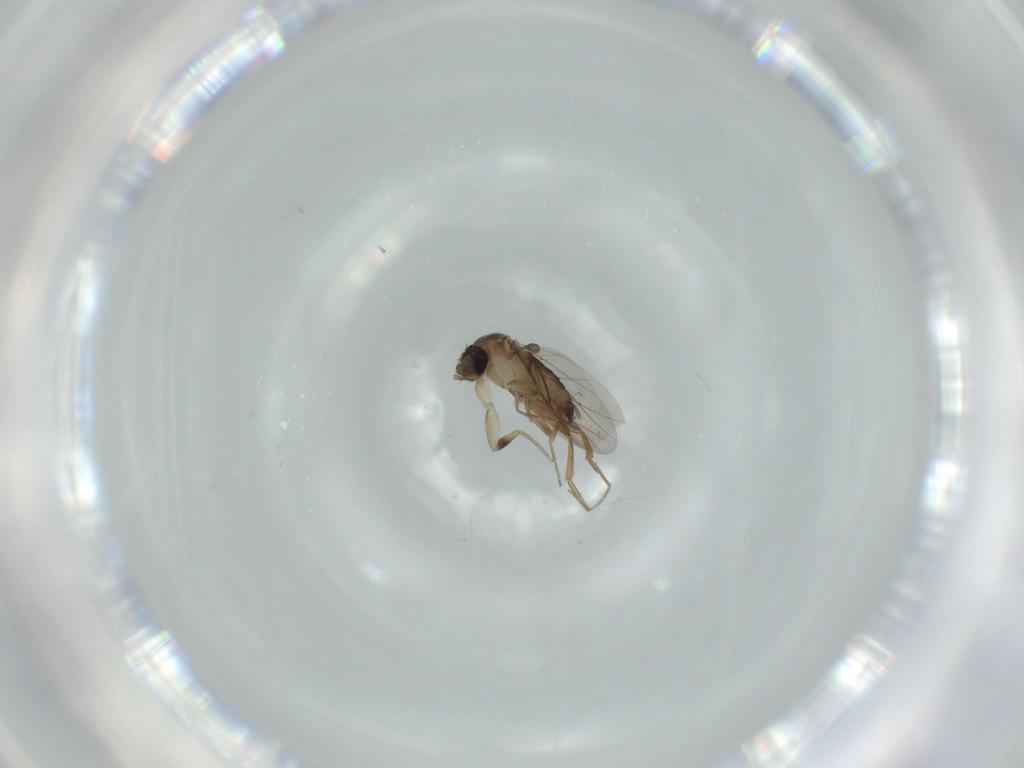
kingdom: Animalia
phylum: Arthropoda
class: Insecta
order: Diptera
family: Phoridae
